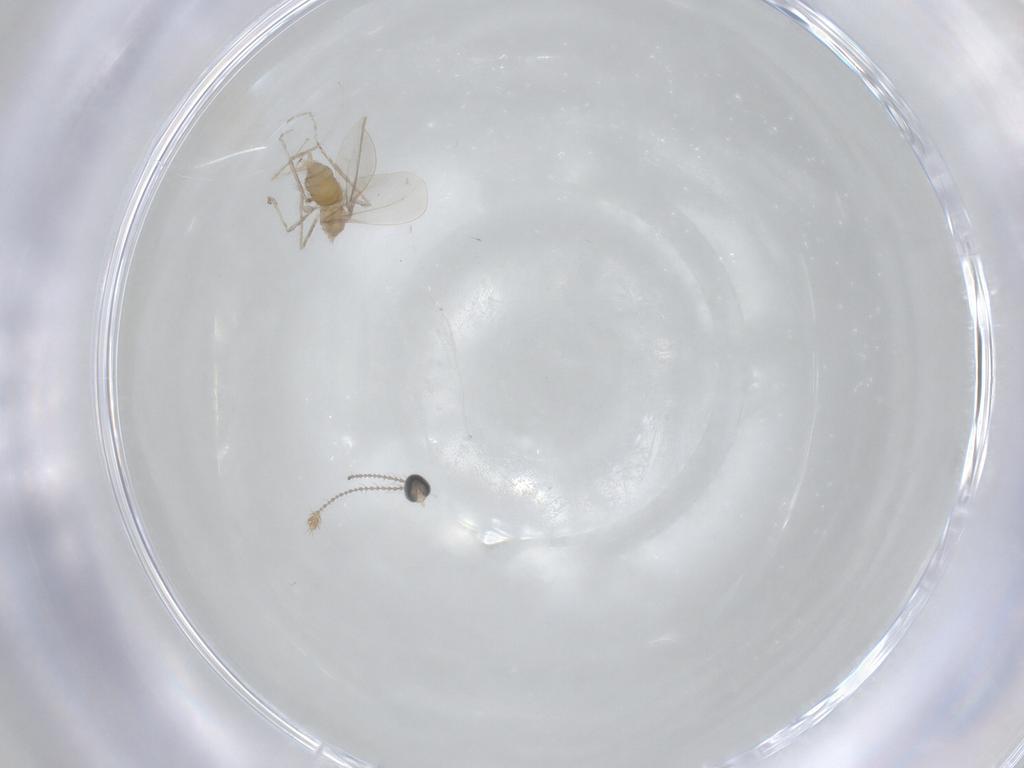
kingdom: Animalia
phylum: Arthropoda
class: Insecta
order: Diptera
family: Cecidomyiidae
